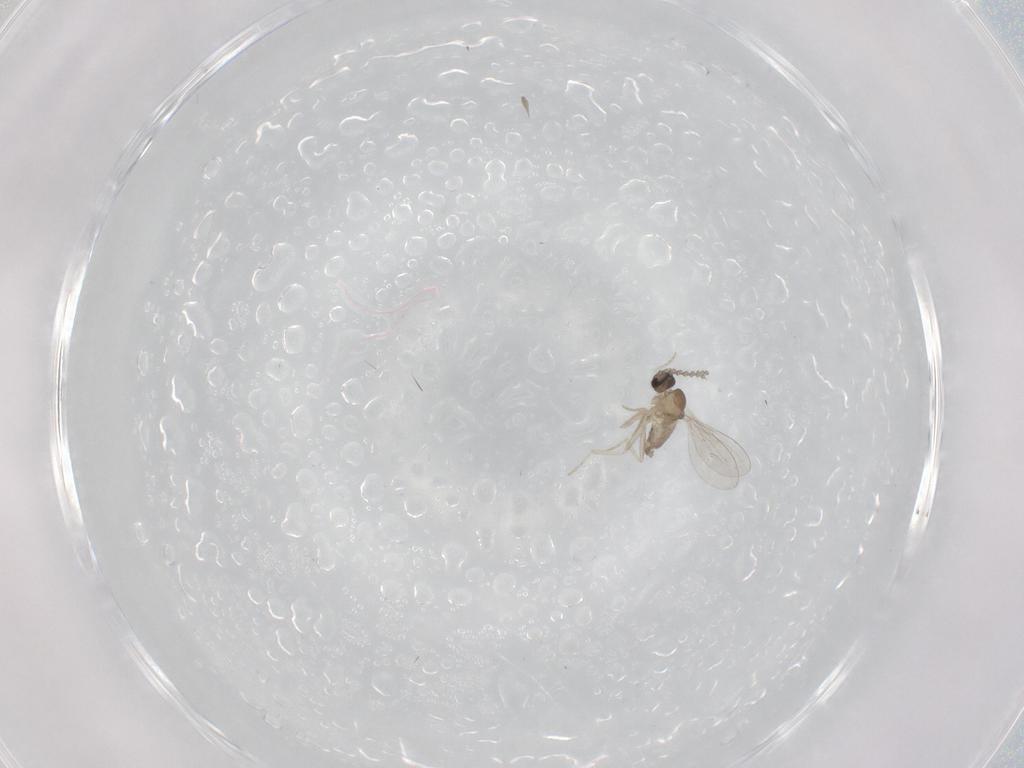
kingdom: Animalia
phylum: Arthropoda
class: Insecta
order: Diptera
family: Cecidomyiidae
